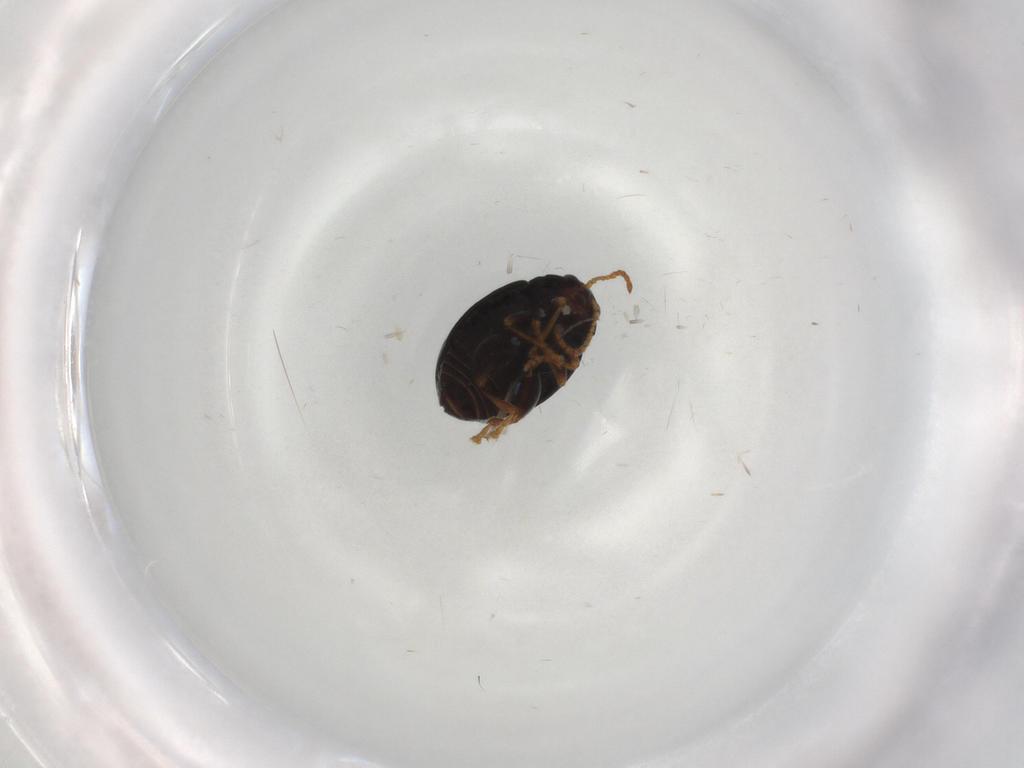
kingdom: Animalia
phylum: Arthropoda
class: Insecta
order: Coleoptera
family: Chrysomelidae
